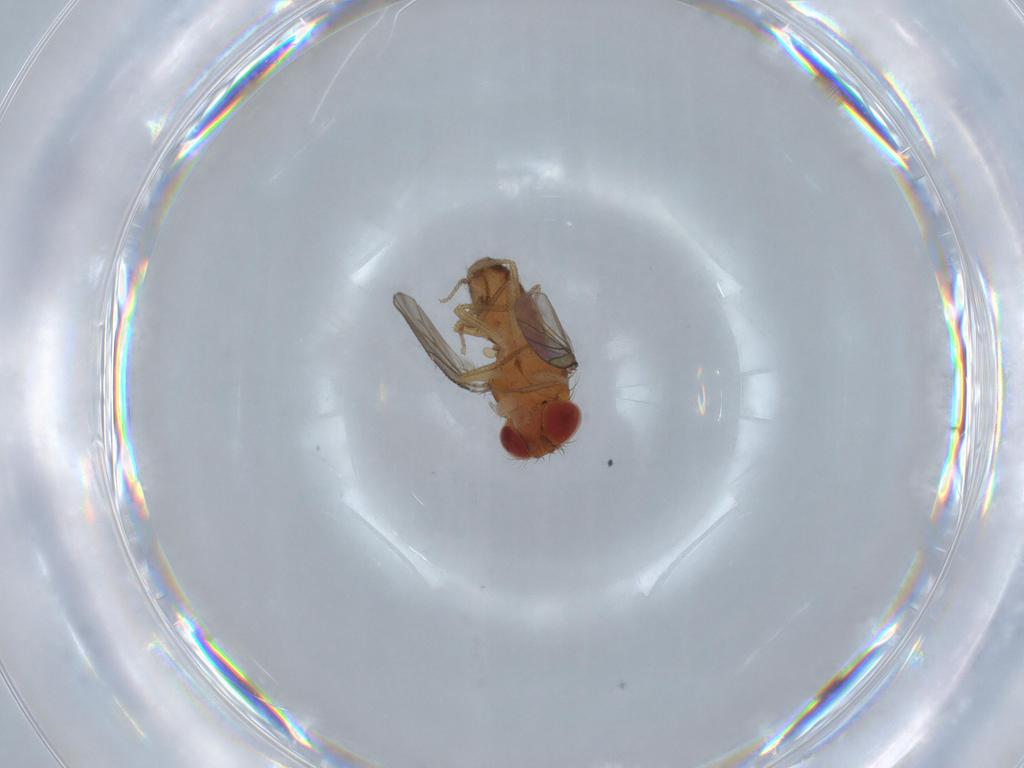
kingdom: Animalia
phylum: Arthropoda
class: Insecta
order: Diptera
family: Drosophilidae
